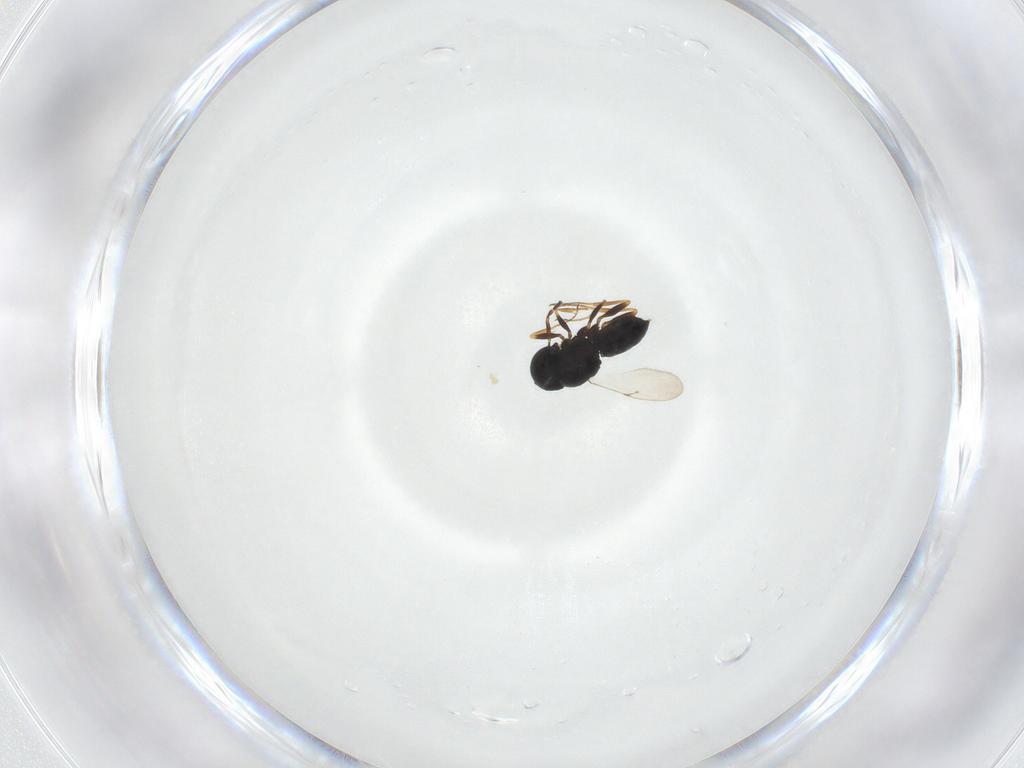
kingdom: Animalia
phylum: Arthropoda
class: Insecta
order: Hymenoptera
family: Scelionidae
